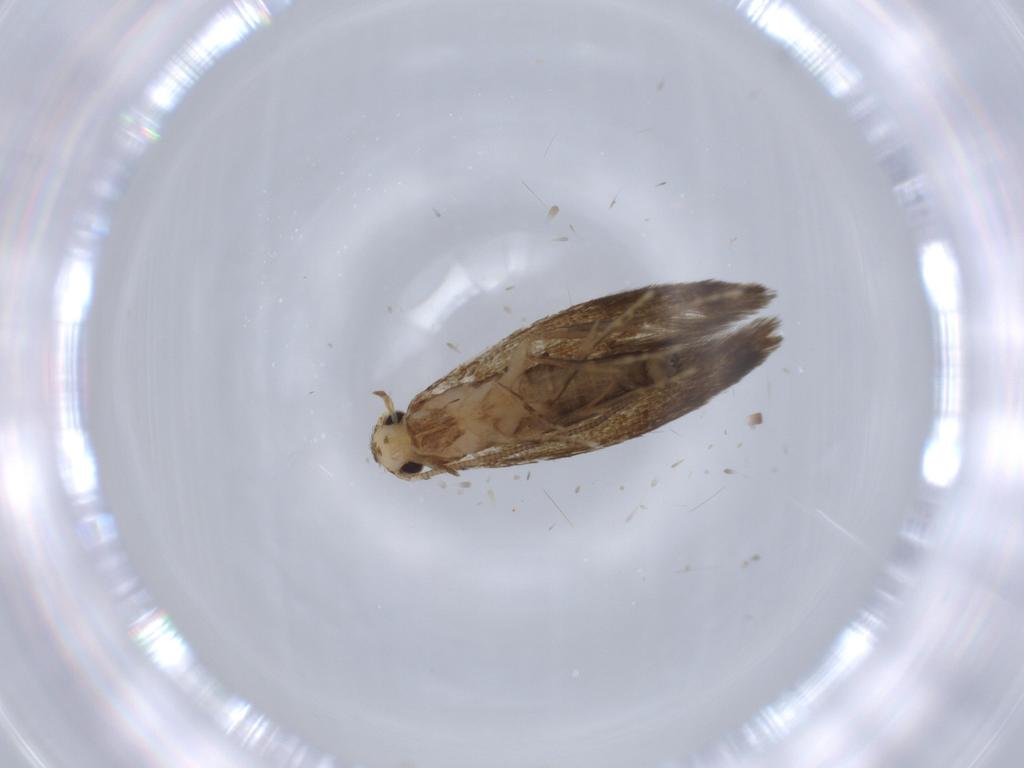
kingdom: Animalia
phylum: Arthropoda
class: Insecta
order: Lepidoptera
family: Tineidae
